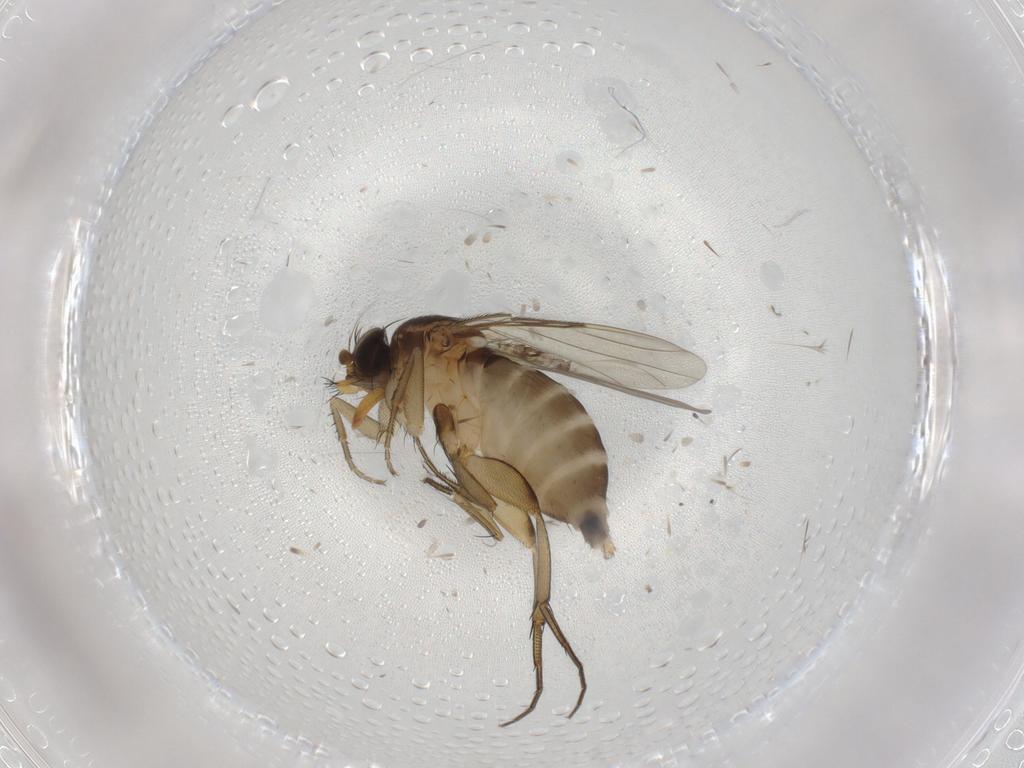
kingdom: Animalia
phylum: Arthropoda
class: Insecta
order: Diptera
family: Phoridae
